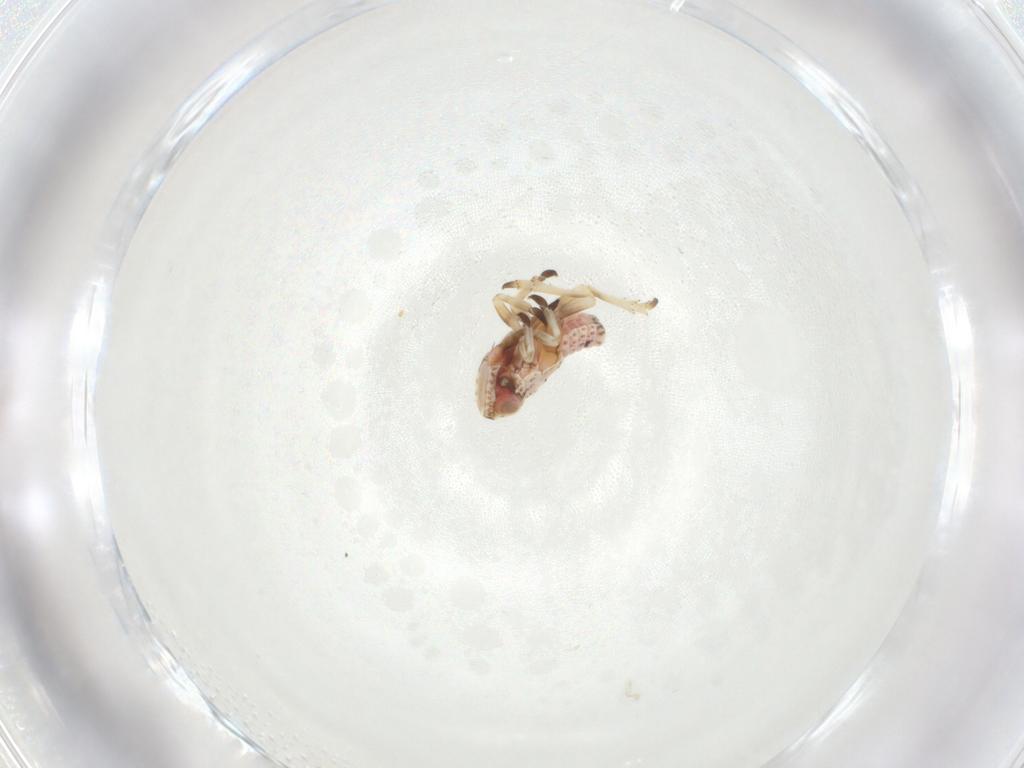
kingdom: Animalia
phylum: Arthropoda
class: Insecta
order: Hemiptera
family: Tropiduchidae
